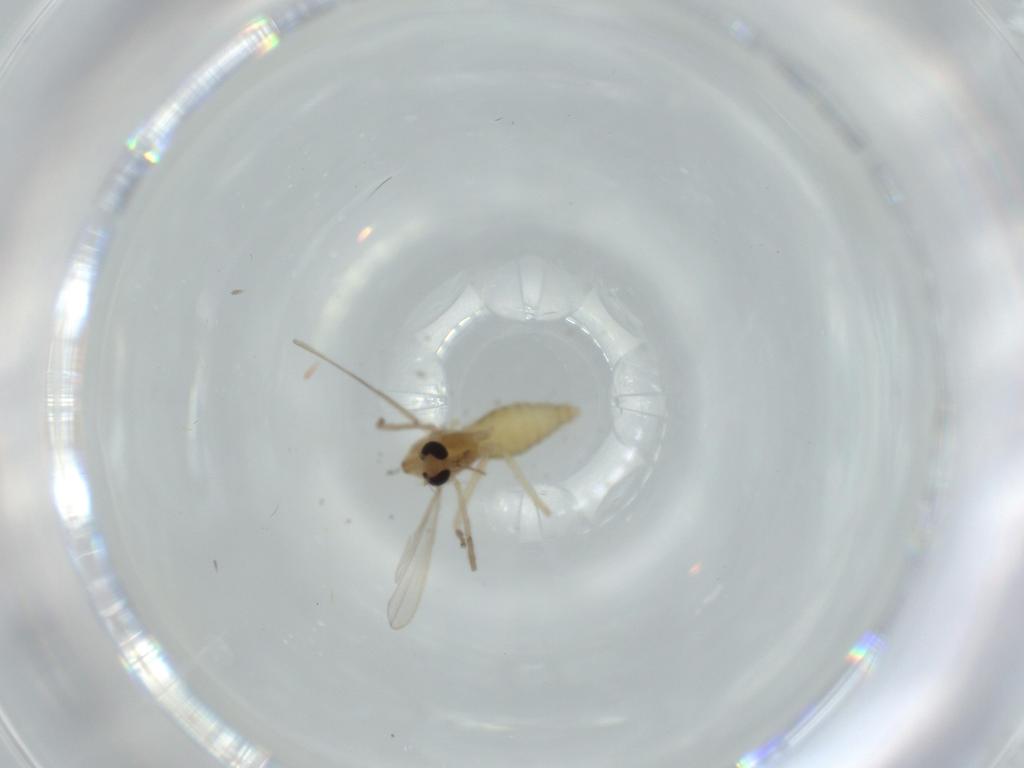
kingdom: Animalia
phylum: Arthropoda
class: Insecta
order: Diptera
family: Chironomidae
